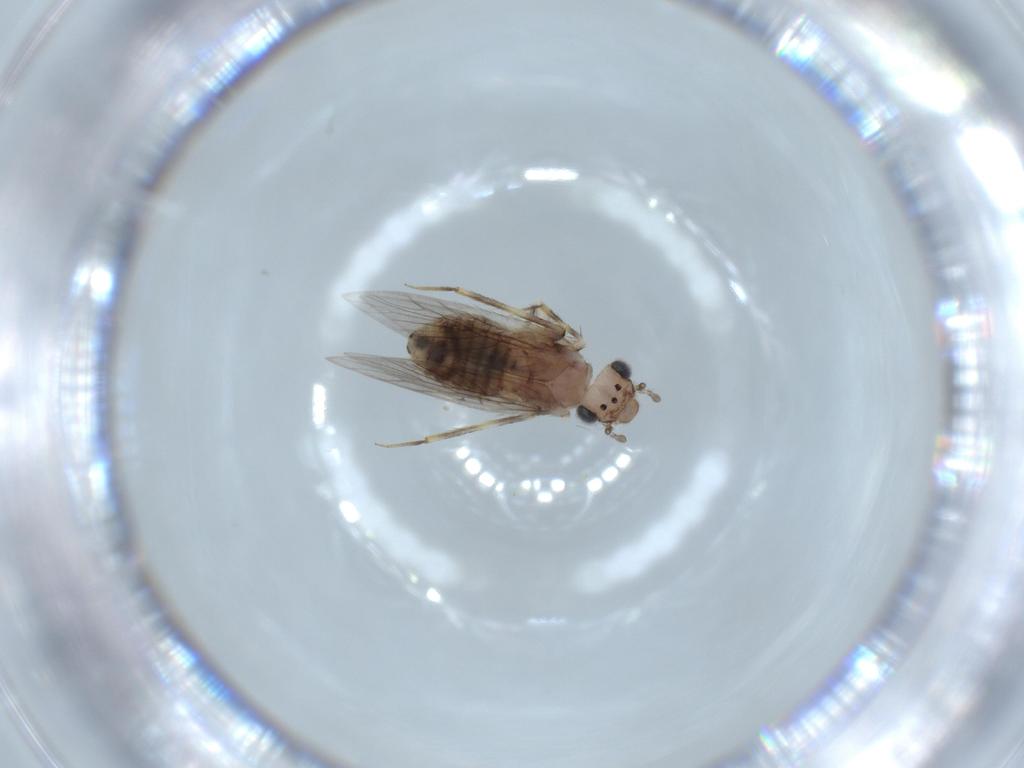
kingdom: Animalia
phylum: Arthropoda
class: Insecta
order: Psocodea
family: Lepidopsocidae
